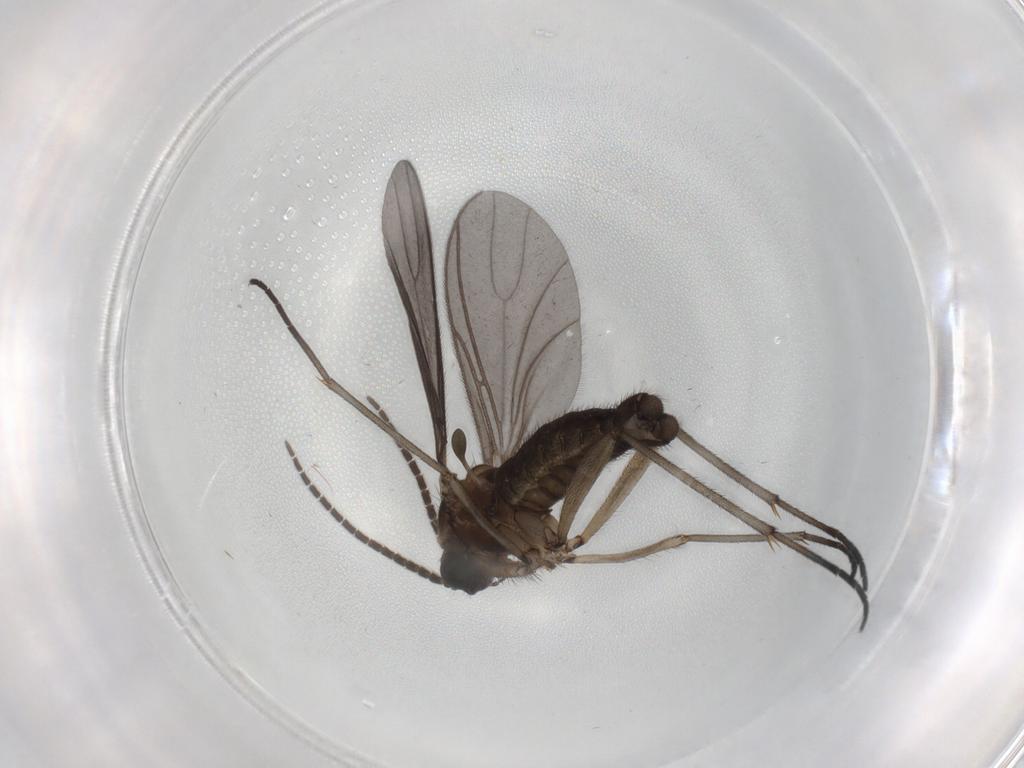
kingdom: Animalia
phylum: Arthropoda
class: Insecta
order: Diptera
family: Sciaridae
